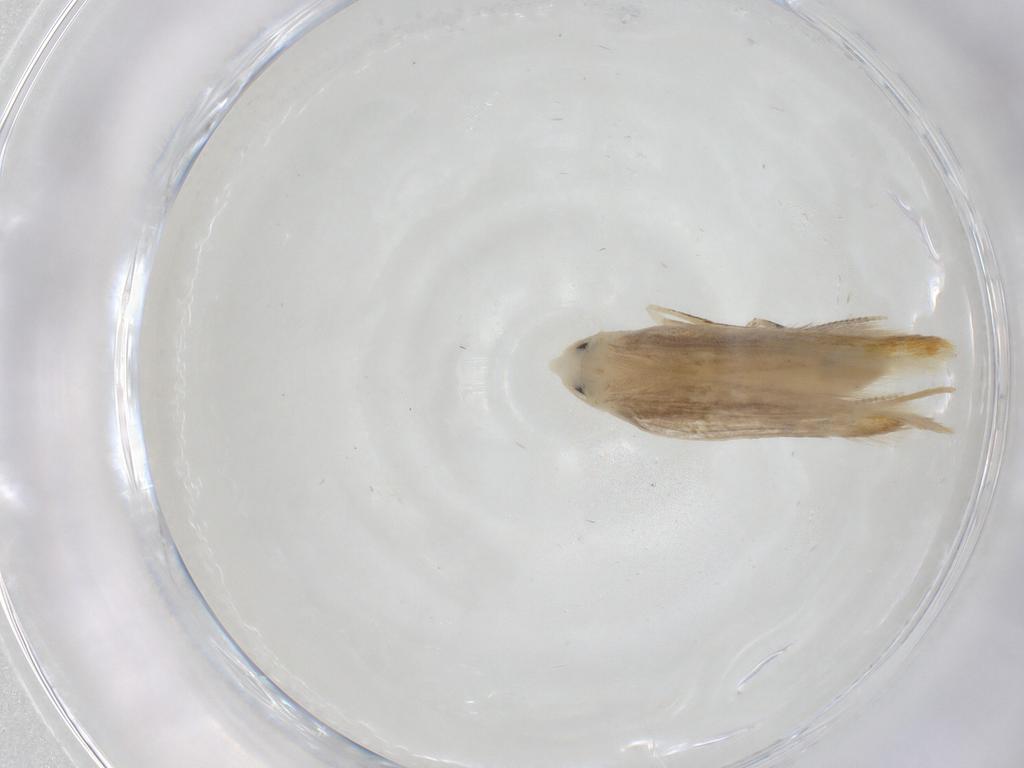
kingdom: Animalia
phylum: Arthropoda
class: Insecta
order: Lepidoptera
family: Geometridae
